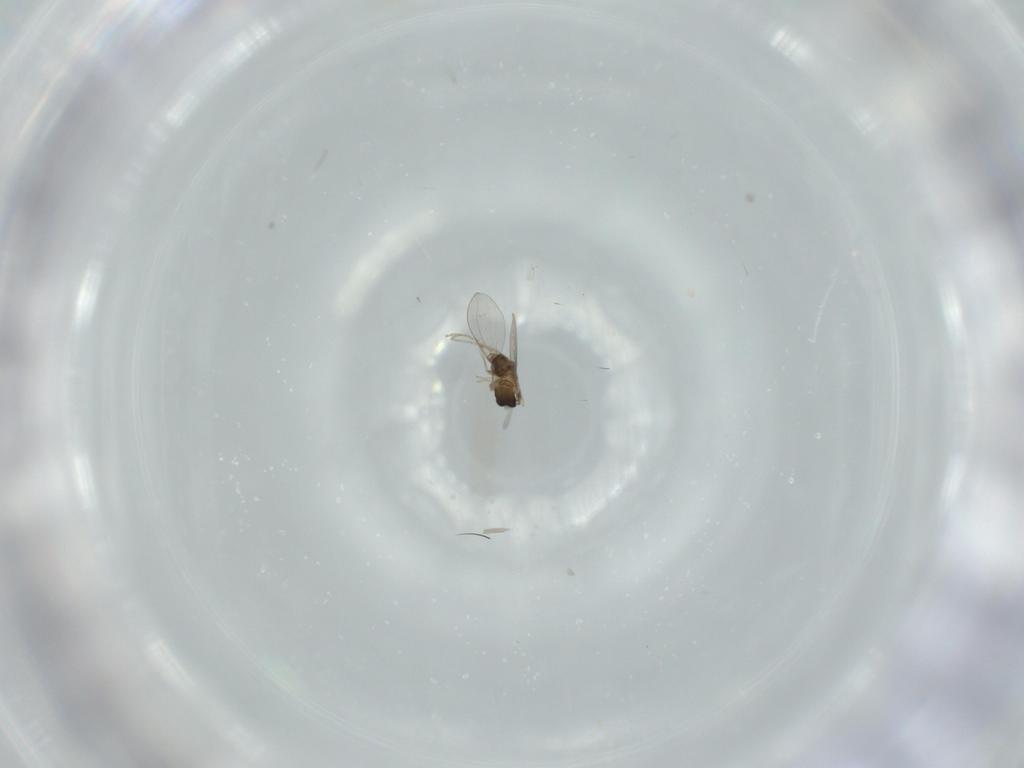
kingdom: Animalia
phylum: Arthropoda
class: Insecta
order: Diptera
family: Cecidomyiidae
